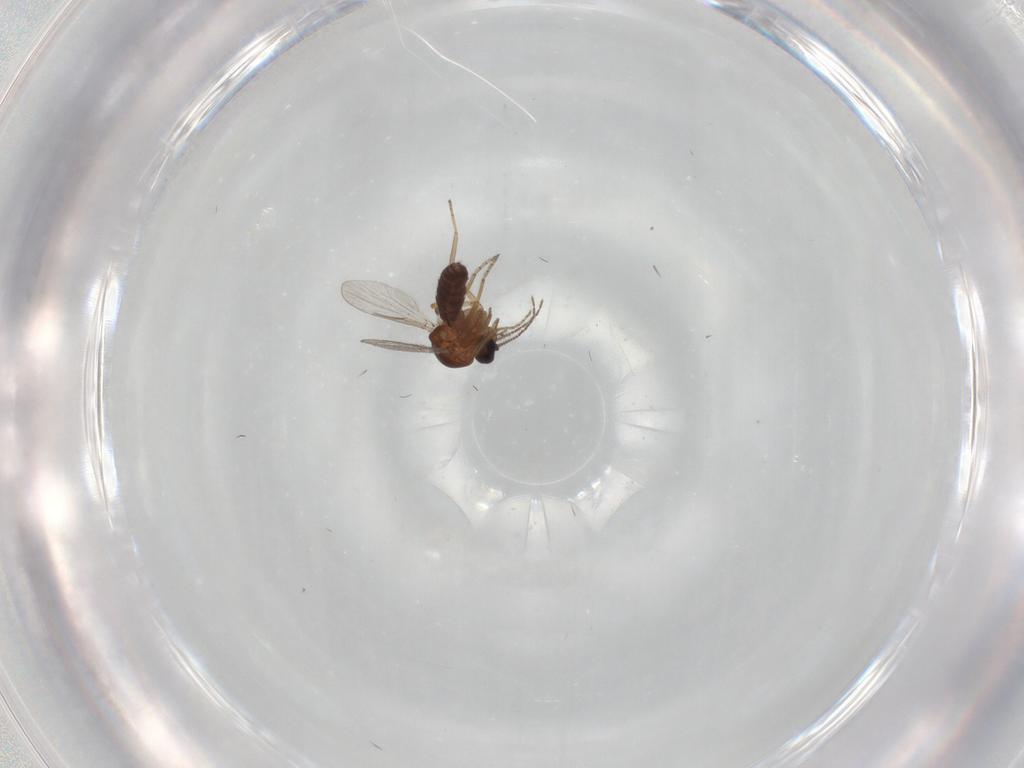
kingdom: Animalia
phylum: Arthropoda
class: Insecta
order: Diptera
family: Ceratopogonidae
